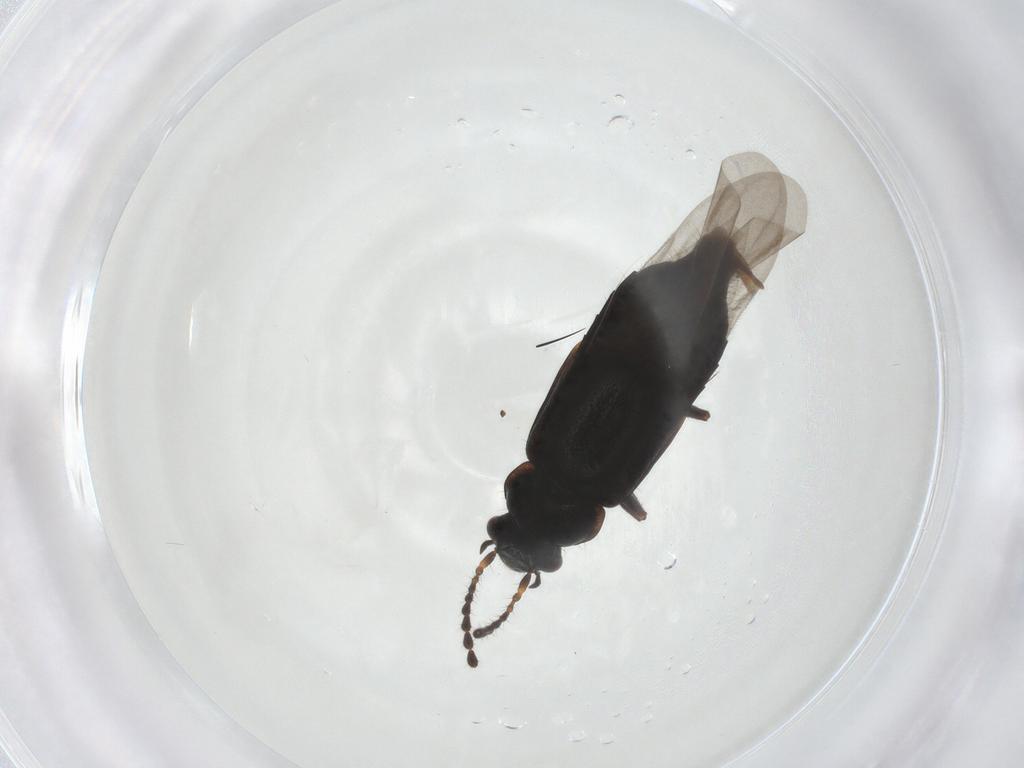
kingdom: Animalia
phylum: Arthropoda
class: Insecta
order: Coleoptera
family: Staphylinidae
